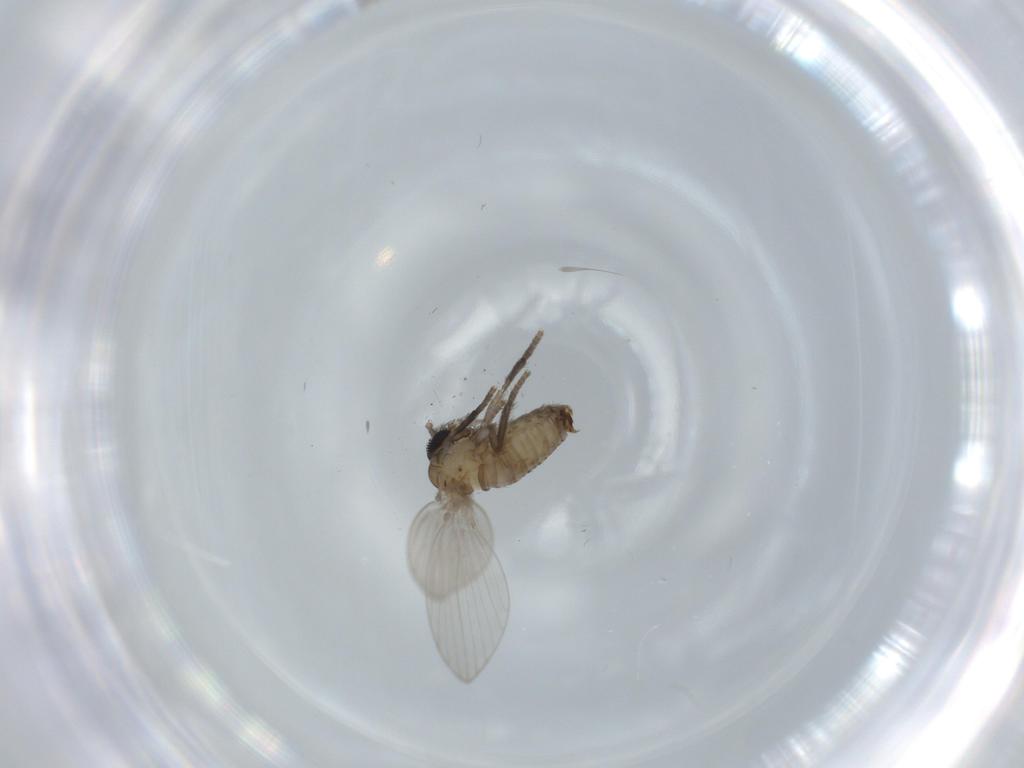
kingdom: Animalia
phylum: Arthropoda
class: Insecta
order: Diptera
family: Psychodidae
